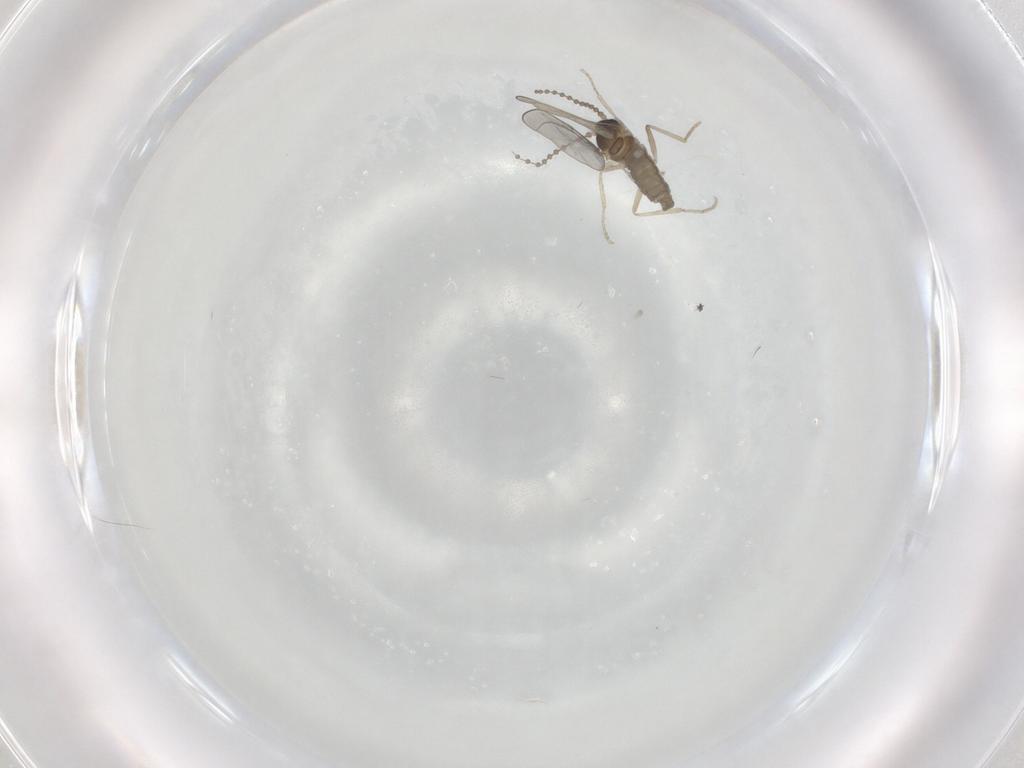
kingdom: Animalia
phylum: Arthropoda
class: Insecta
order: Diptera
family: Cecidomyiidae
